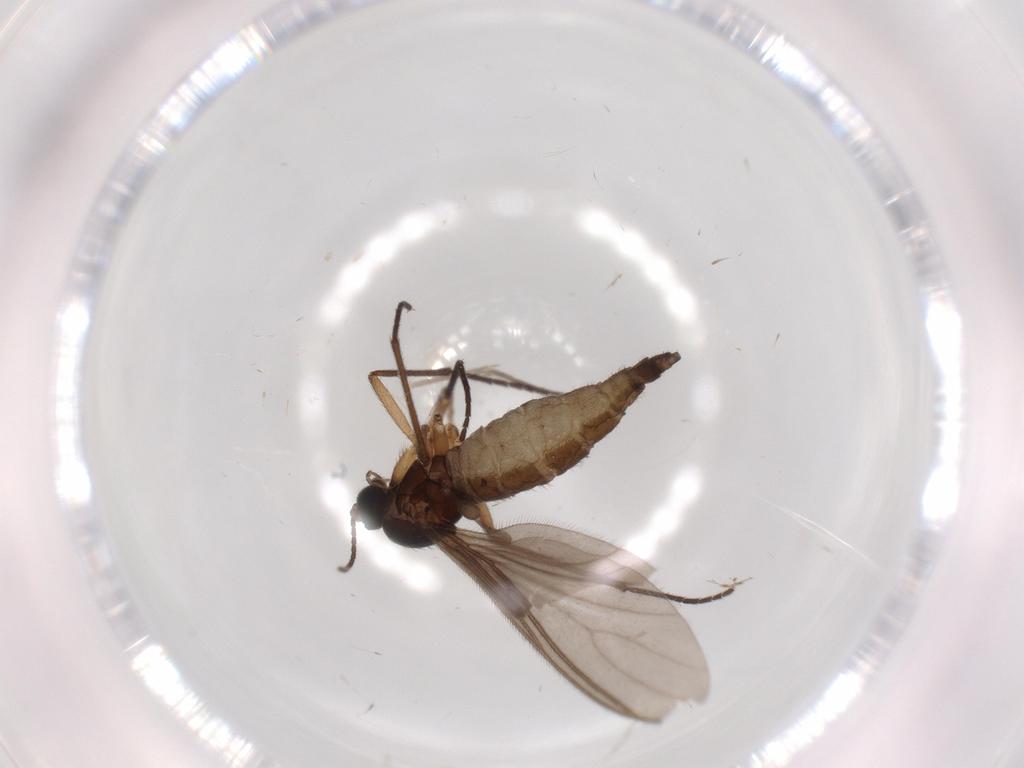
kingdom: Animalia
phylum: Arthropoda
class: Insecta
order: Diptera
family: Sciaridae
